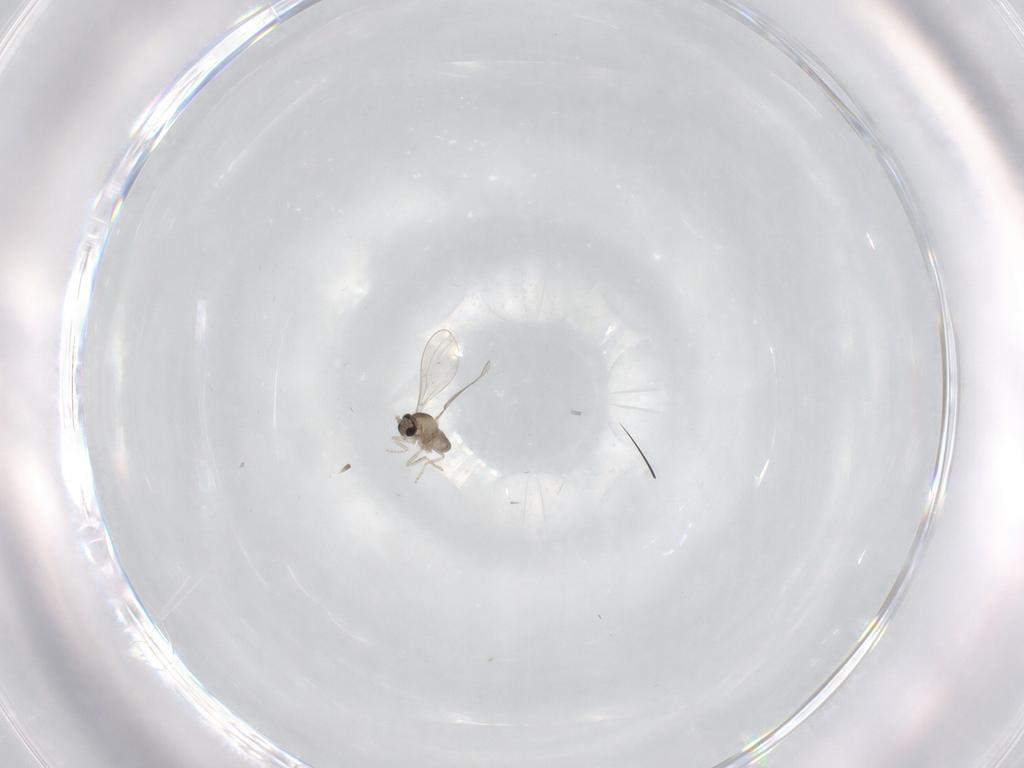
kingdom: Animalia
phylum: Arthropoda
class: Insecta
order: Diptera
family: Cecidomyiidae
